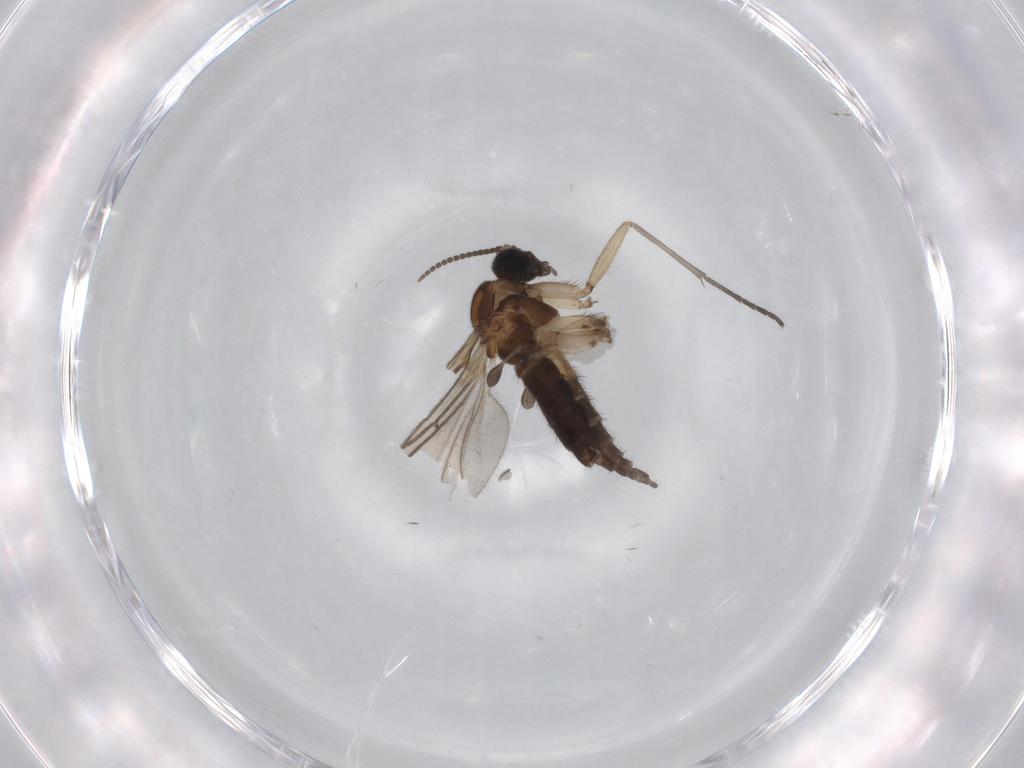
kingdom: Animalia
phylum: Arthropoda
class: Insecta
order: Diptera
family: Sciaridae
